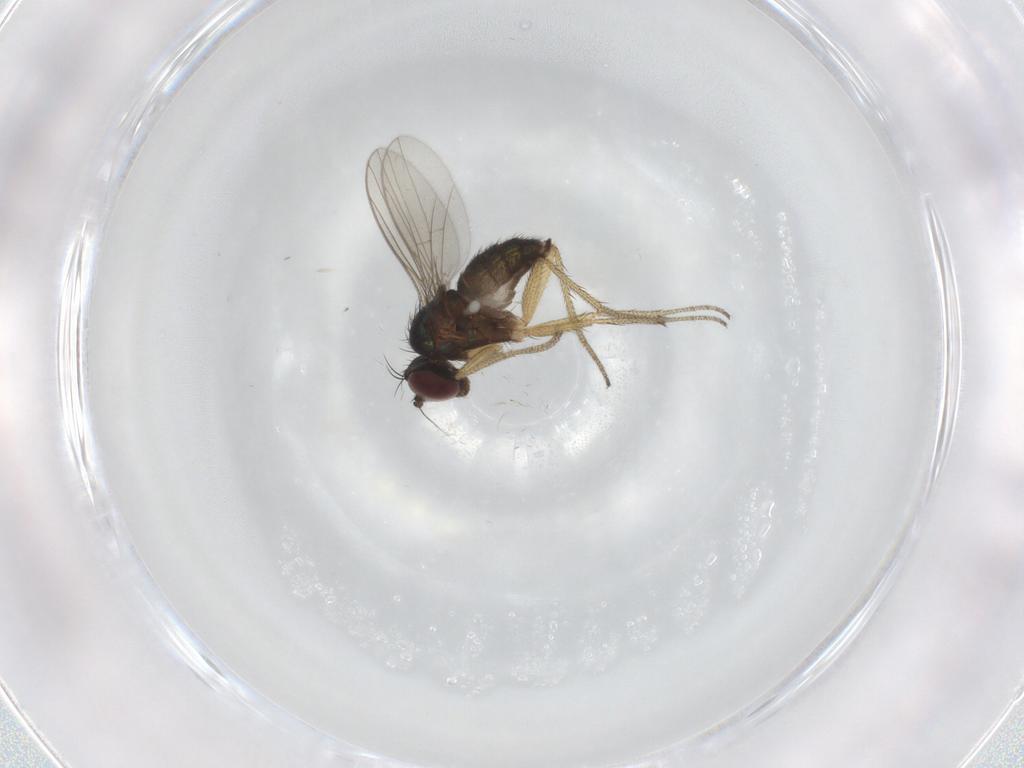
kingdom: Animalia
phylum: Arthropoda
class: Insecta
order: Diptera
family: Dolichopodidae
